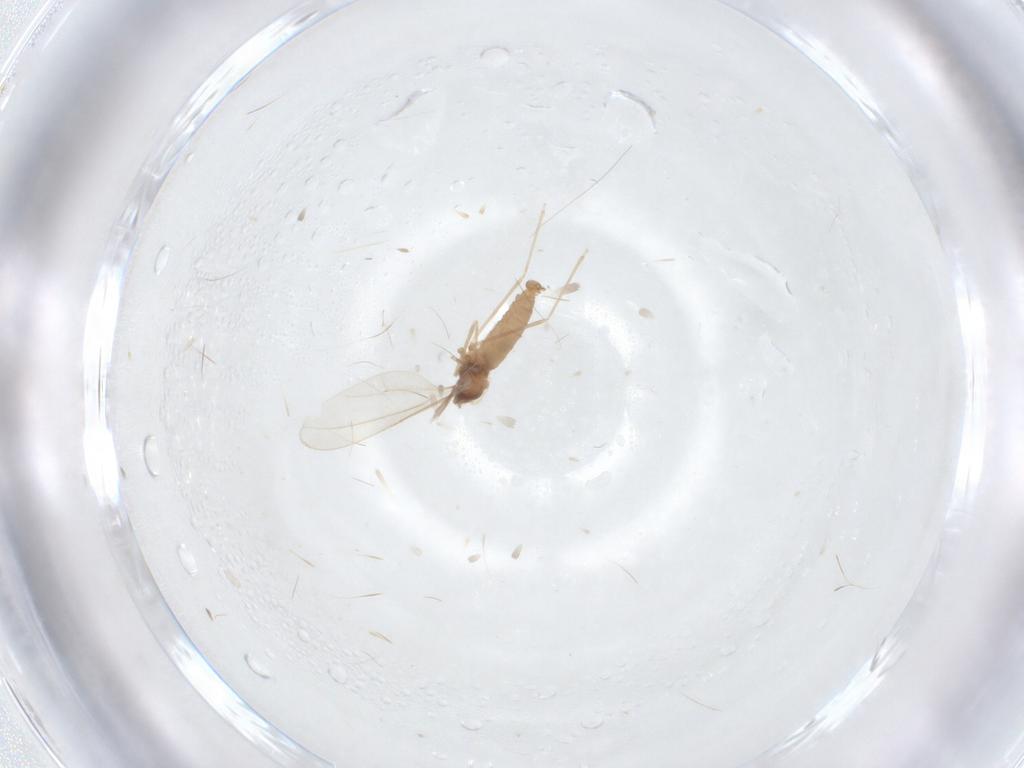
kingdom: Animalia
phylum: Arthropoda
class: Insecta
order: Diptera
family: Cecidomyiidae
